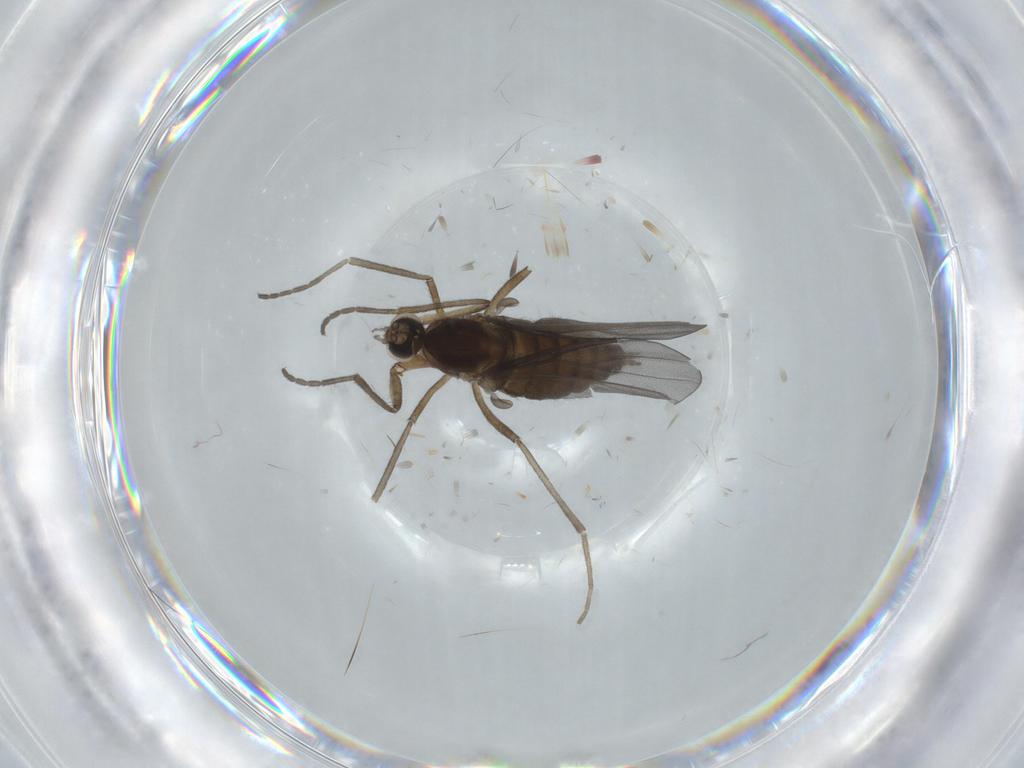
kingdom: Animalia
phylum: Arthropoda
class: Insecta
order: Diptera
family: Cecidomyiidae
